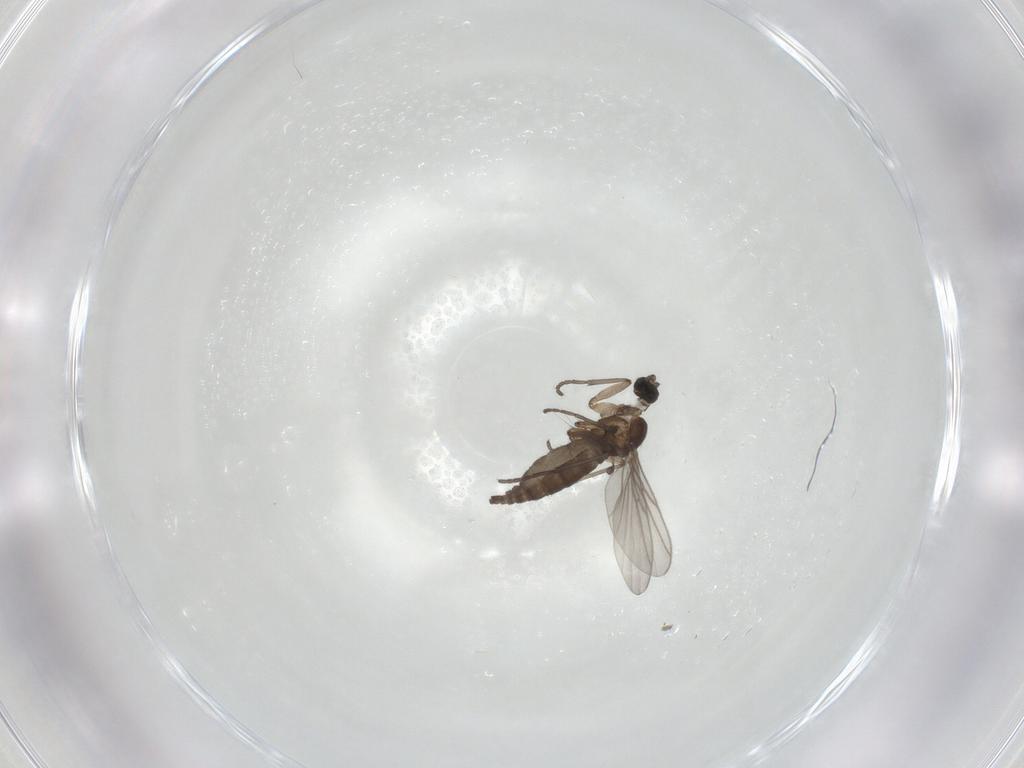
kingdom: Animalia
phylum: Arthropoda
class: Insecta
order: Diptera
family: Sciaridae
